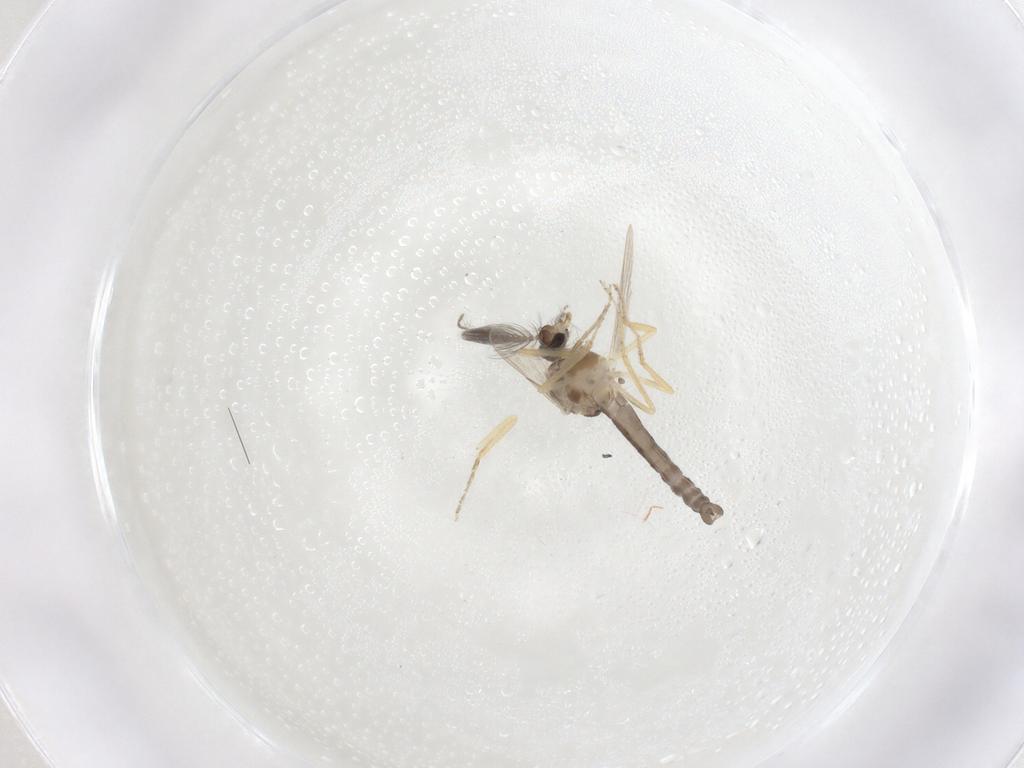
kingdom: Animalia
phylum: Arthropoda
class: Insecta
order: Diptera
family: Ceratopogonidae
